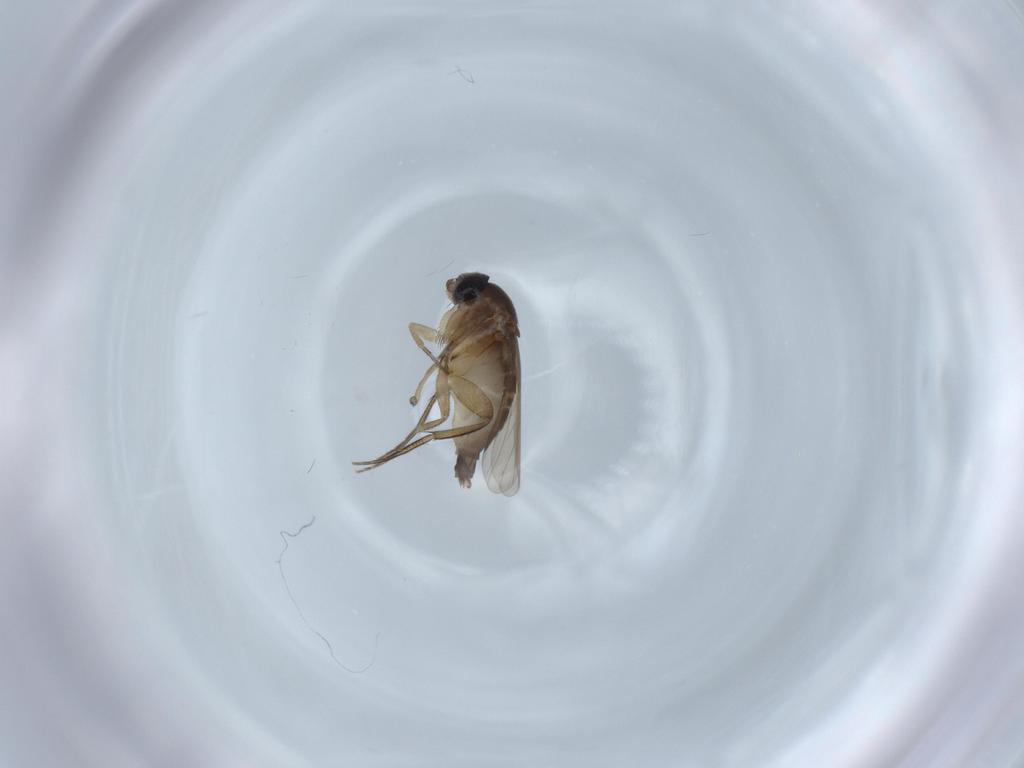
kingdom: Animalia
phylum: Arthropoda
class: Insecta
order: Diptera
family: Phoridae
